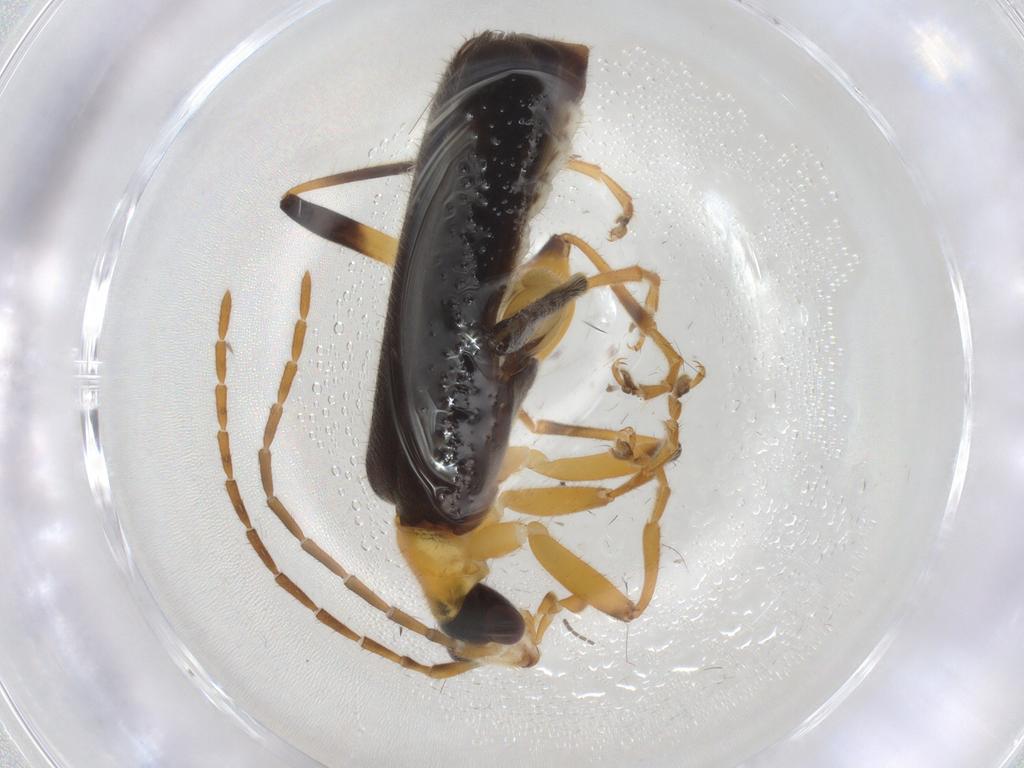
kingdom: Animalia
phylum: Arthropoda
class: Insecta
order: Coleoptera
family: Cantharidae
